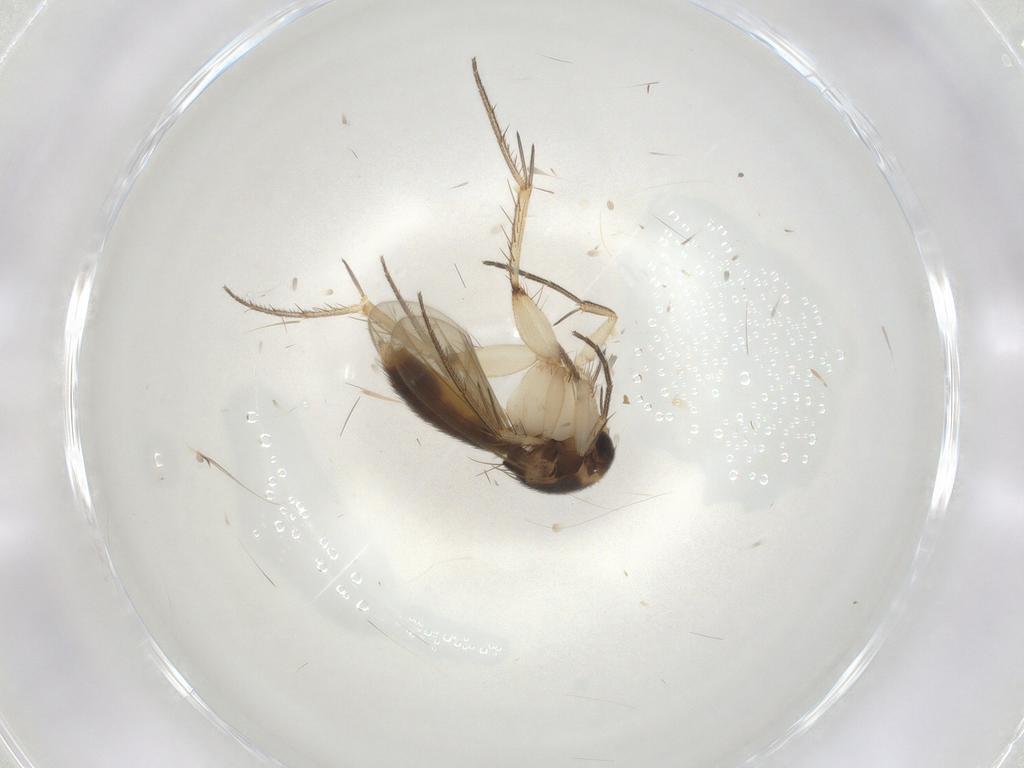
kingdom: Animalia
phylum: Arthropoda
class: Insecta
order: Diptera
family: Mycetophilidae
